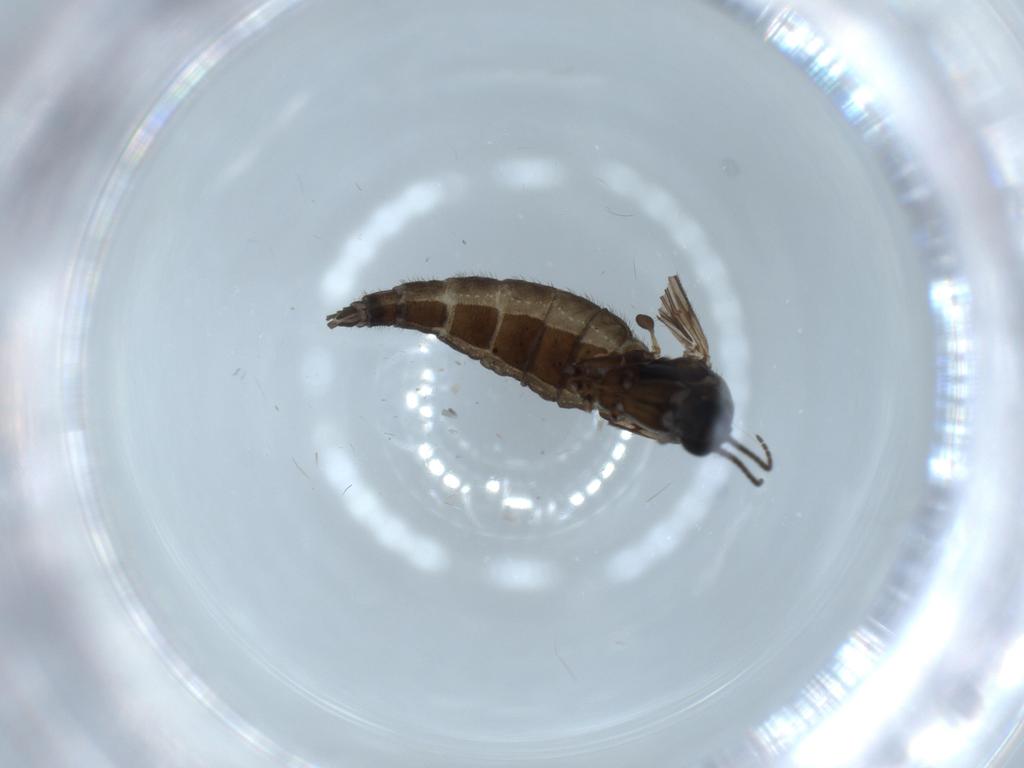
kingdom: Animalia
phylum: Arthropoda
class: Insecta
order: Diptera
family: Sciaridae
